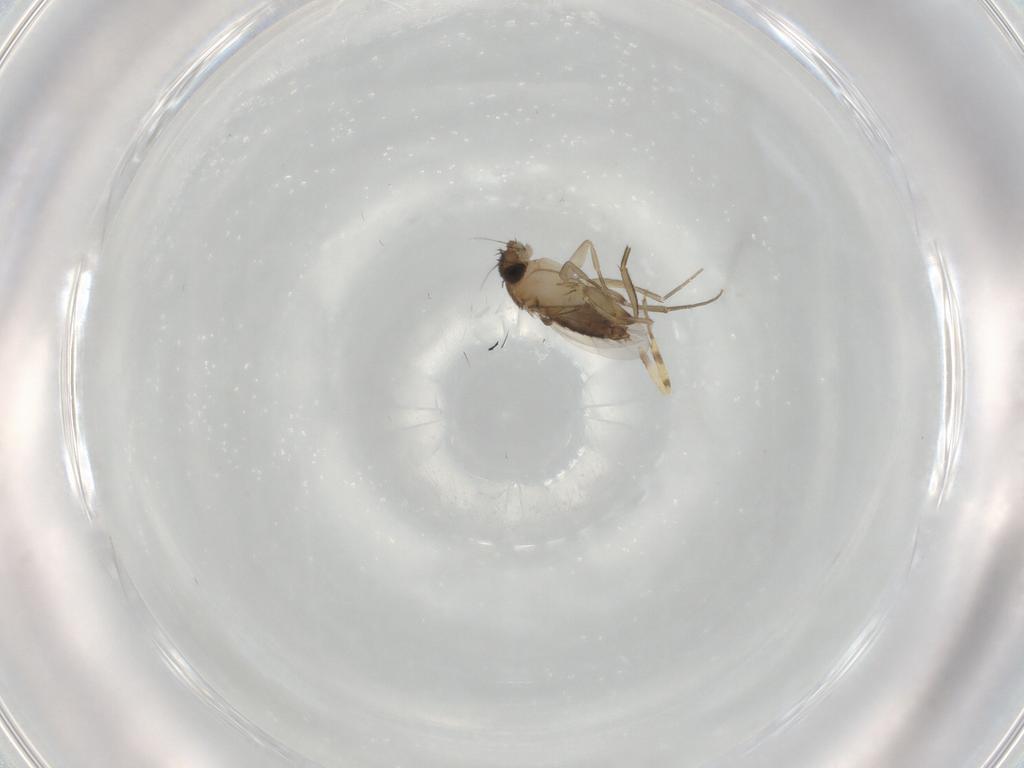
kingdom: Animalia
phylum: Arthropoda
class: Insecta
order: Diptera
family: Ceratopogonidae
